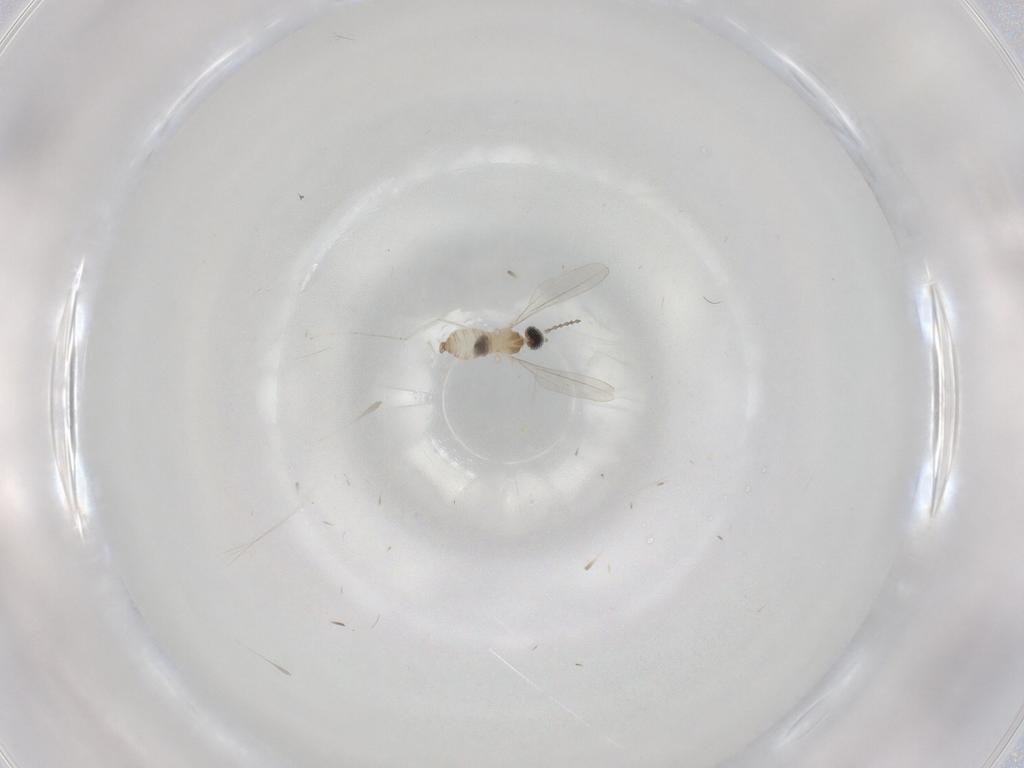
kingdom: Animalia
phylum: Arthropoda
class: Insecta
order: Diptera
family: Cecidomyiidae
